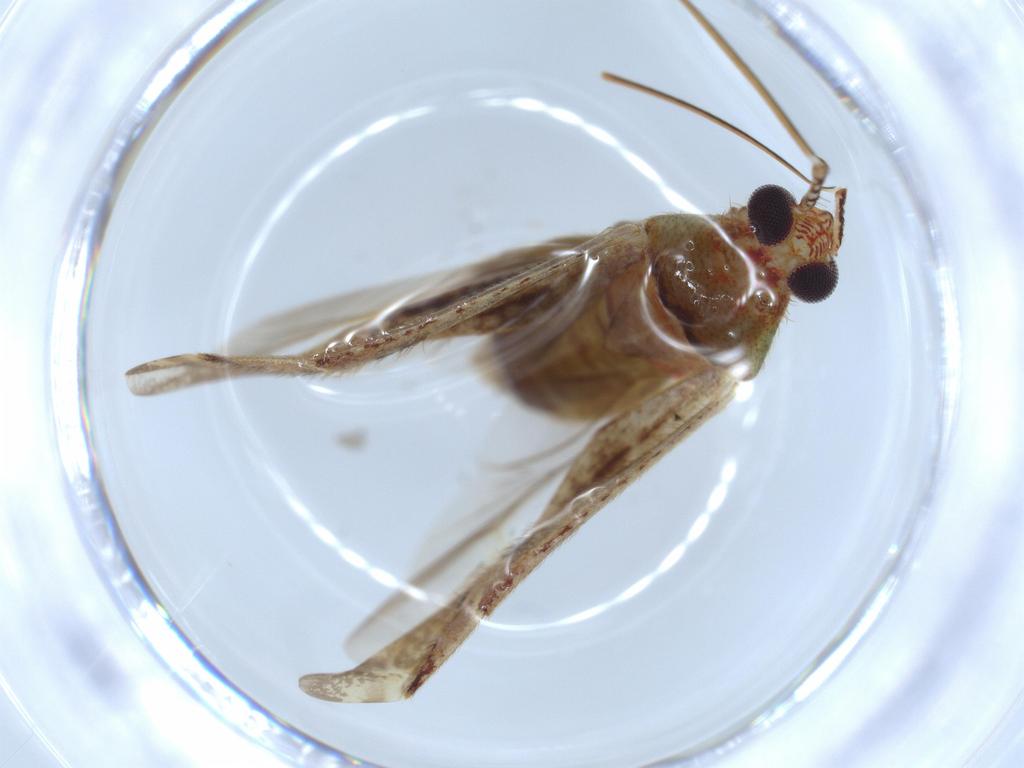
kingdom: Animalia
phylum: Arthropoda
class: Insecta
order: Hemiptera
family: Miridae
